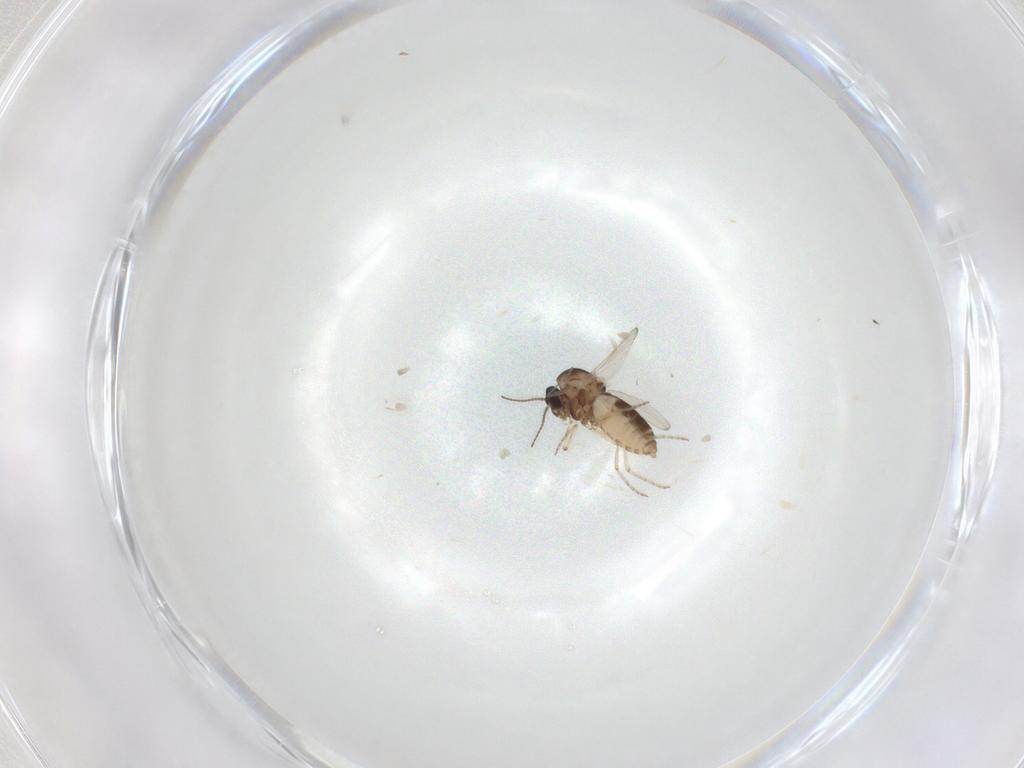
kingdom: Animalia
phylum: Arthropoda
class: Insecta
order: Diptera
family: Ceratopogonidae
